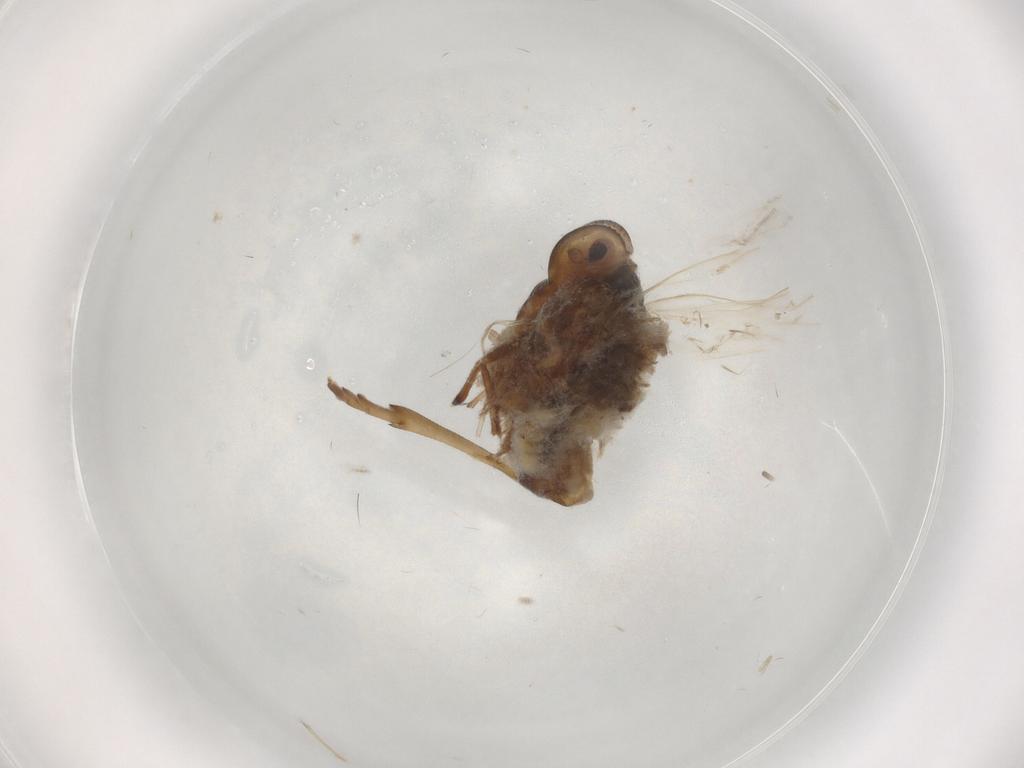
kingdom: Animalia
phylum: Arthropoda
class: Insecta
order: Hemiptera
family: Meenoplidae
